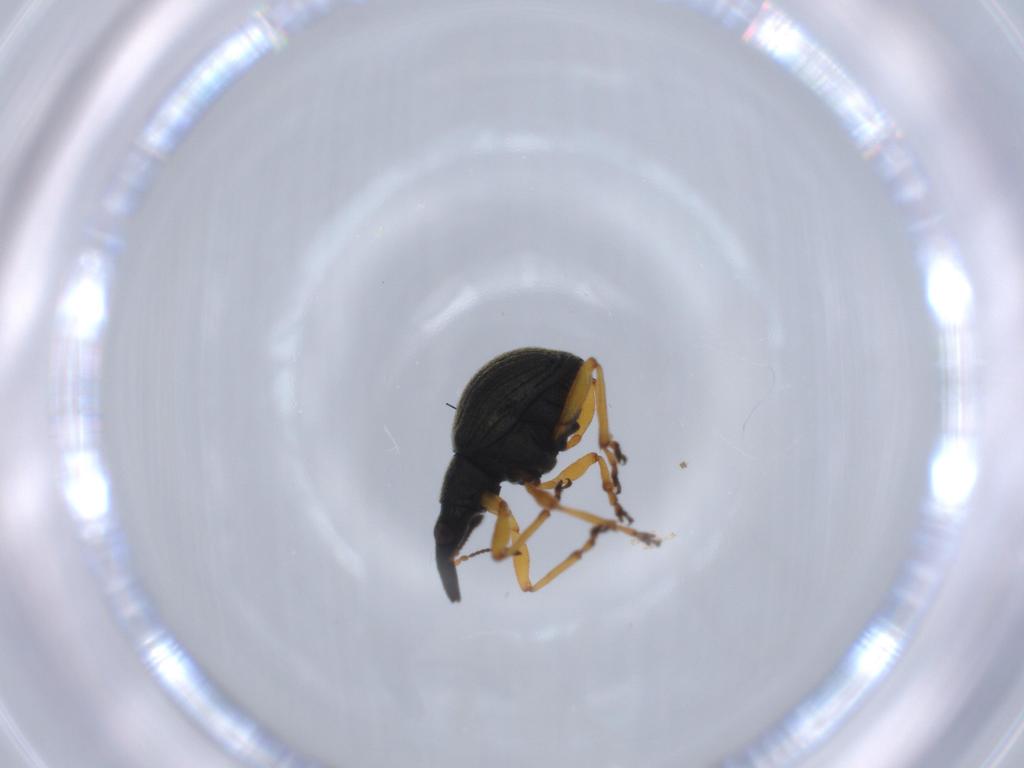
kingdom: Animalia
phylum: Arthropoda
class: Insecta
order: Coleoptera
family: Brentidae
